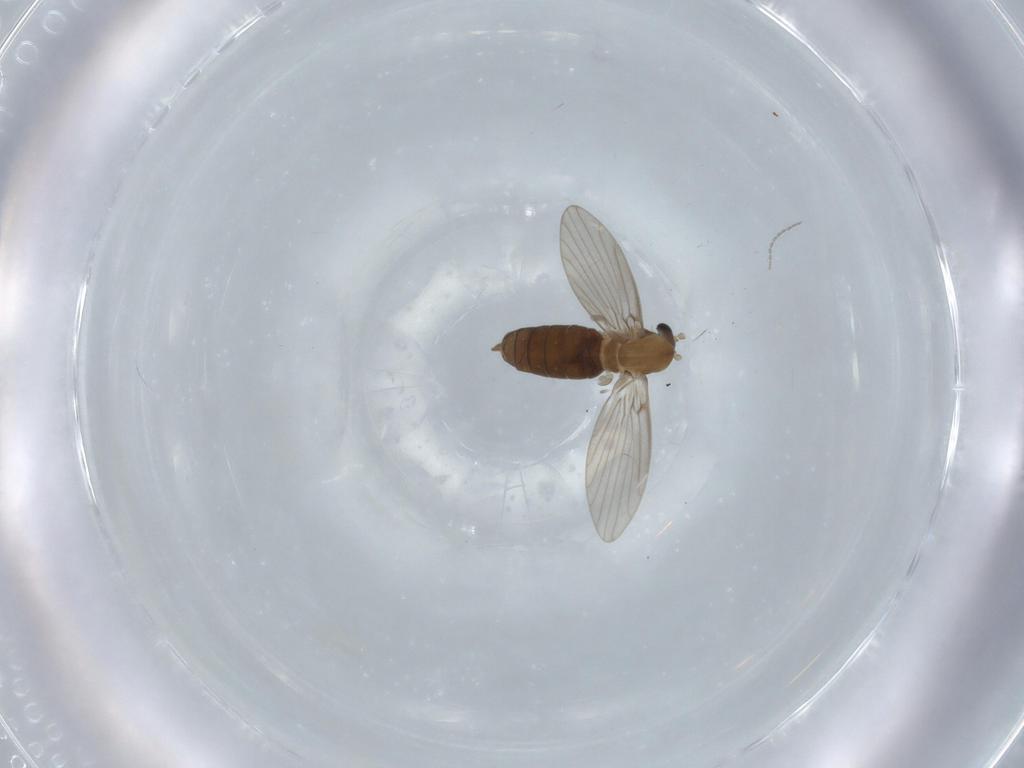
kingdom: Animalia
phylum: Arthropoda
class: Insecta
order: Diptera
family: Psychodidae
